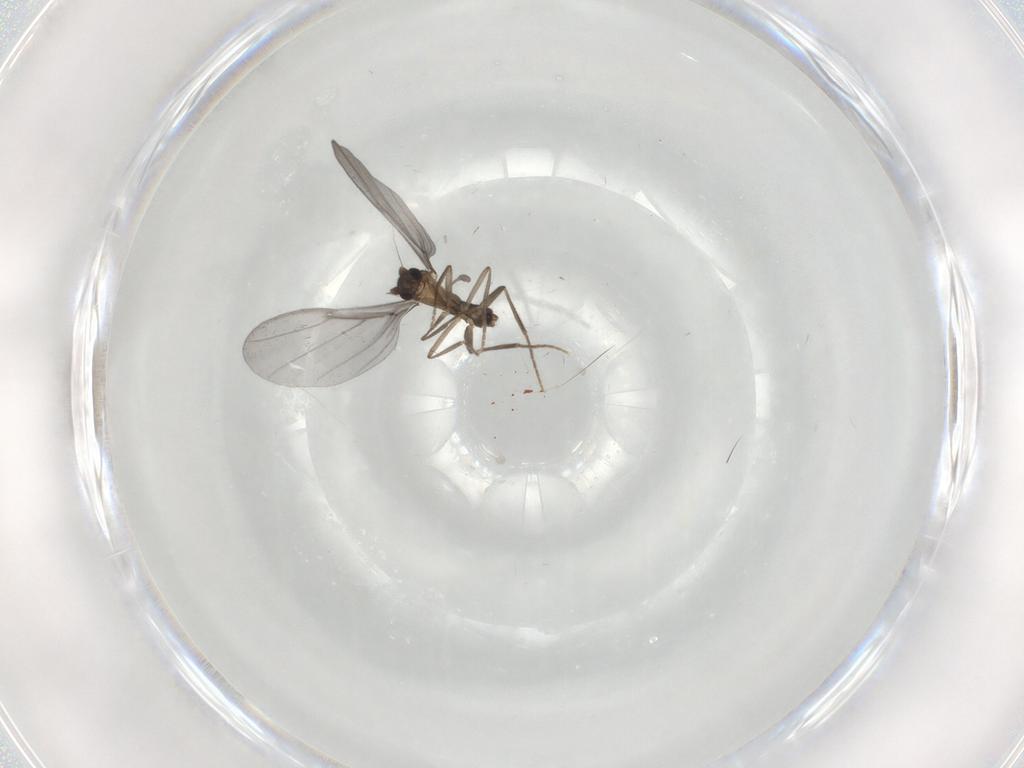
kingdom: Animalia
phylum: Arthropoda
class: Insecta
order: Diptera
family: Phoridae
